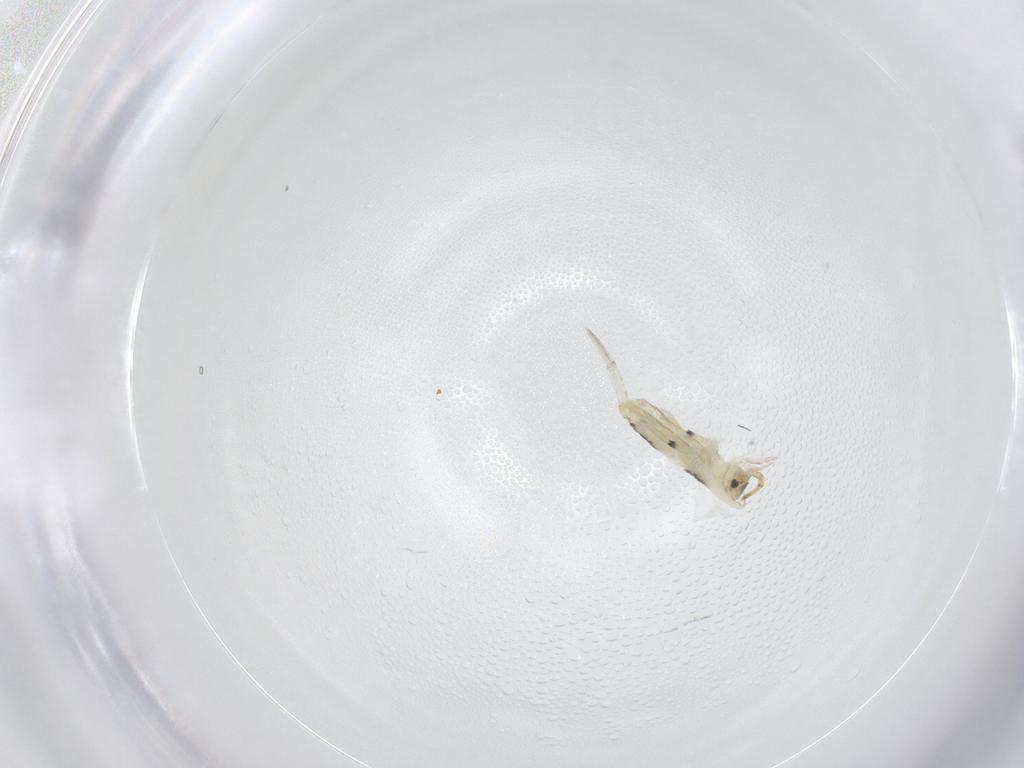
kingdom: Animalia
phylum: Arthropoda
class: Collembola
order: Entomobryomorpha
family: Entomobryidae
